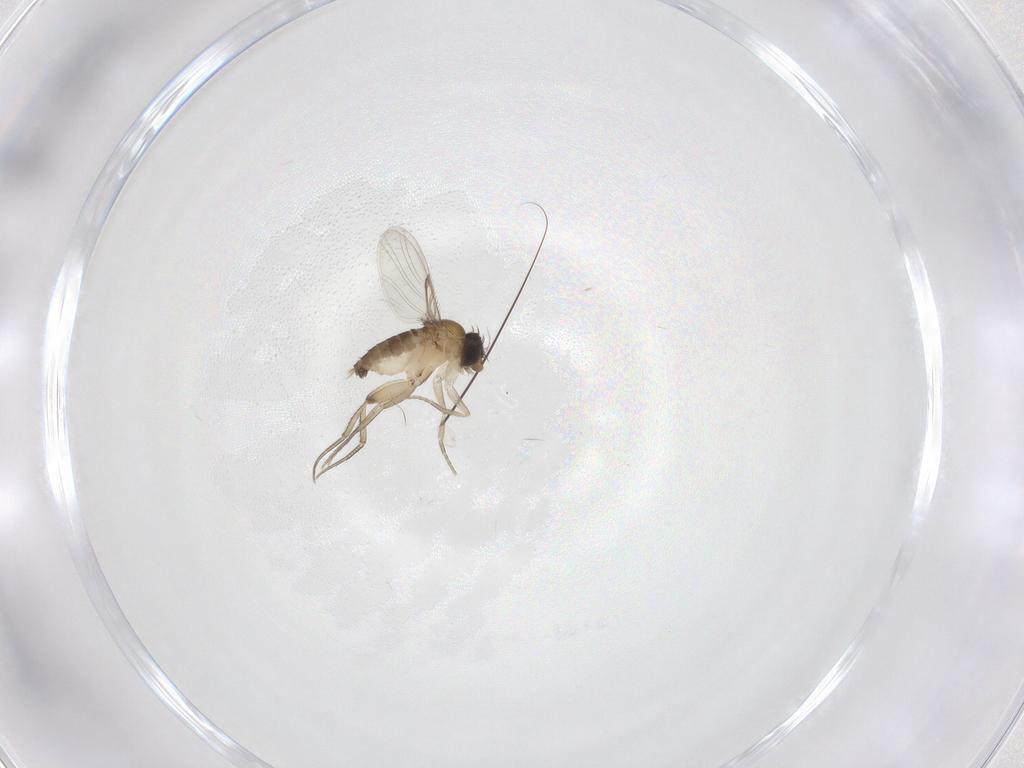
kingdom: Animalia
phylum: Arthropoda
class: Insecta
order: Diptera
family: Phoridae
